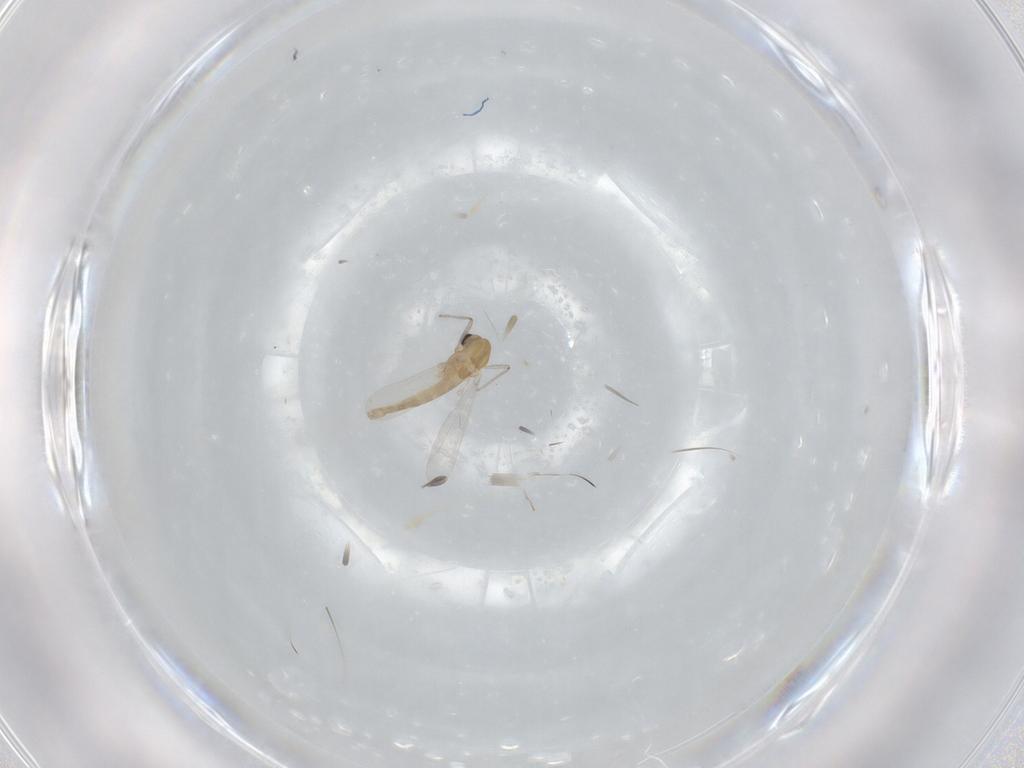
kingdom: Animalia
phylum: Arthropoda
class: Insecta
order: Diptera
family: Chironomidae
